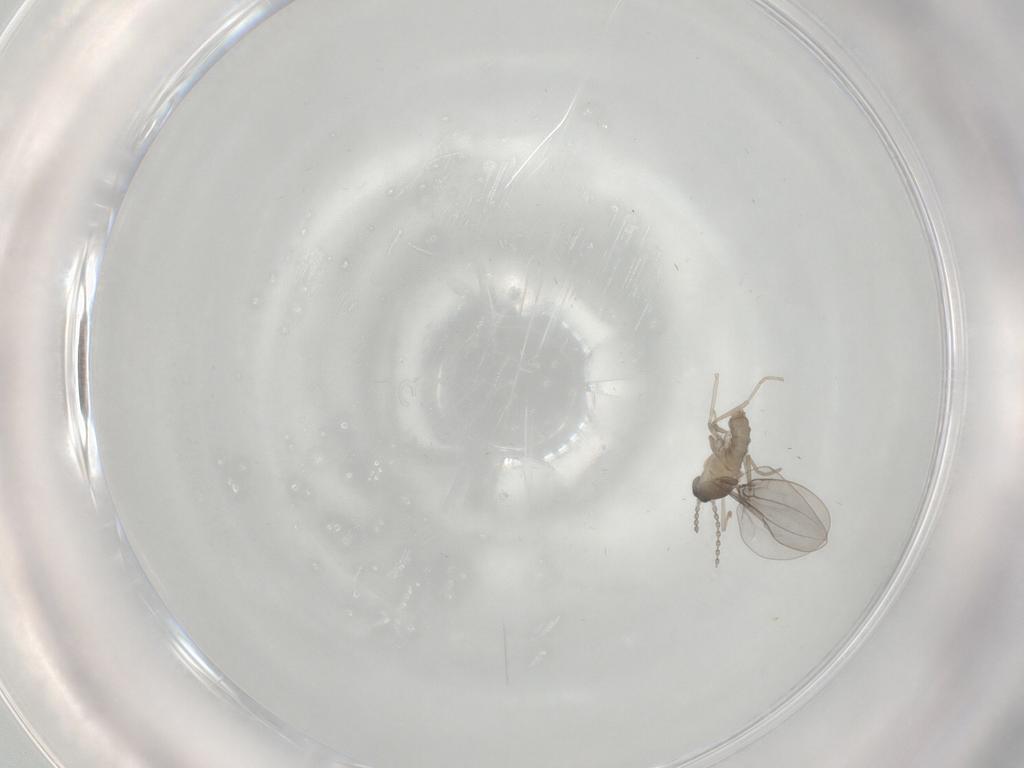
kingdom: Animalia
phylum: Arthropoda
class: Insecta
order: Diptera
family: Cecidomyiidae
